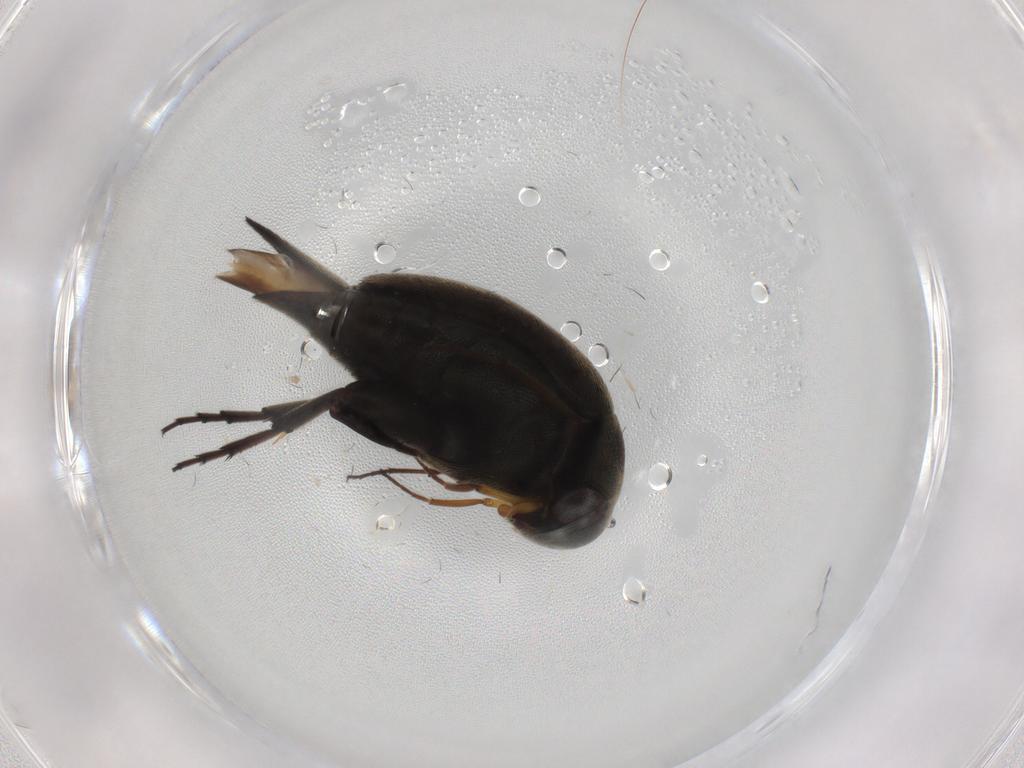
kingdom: Animalia
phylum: Arthropoda
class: Insecta
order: Coleoptera
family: Mordellidae
